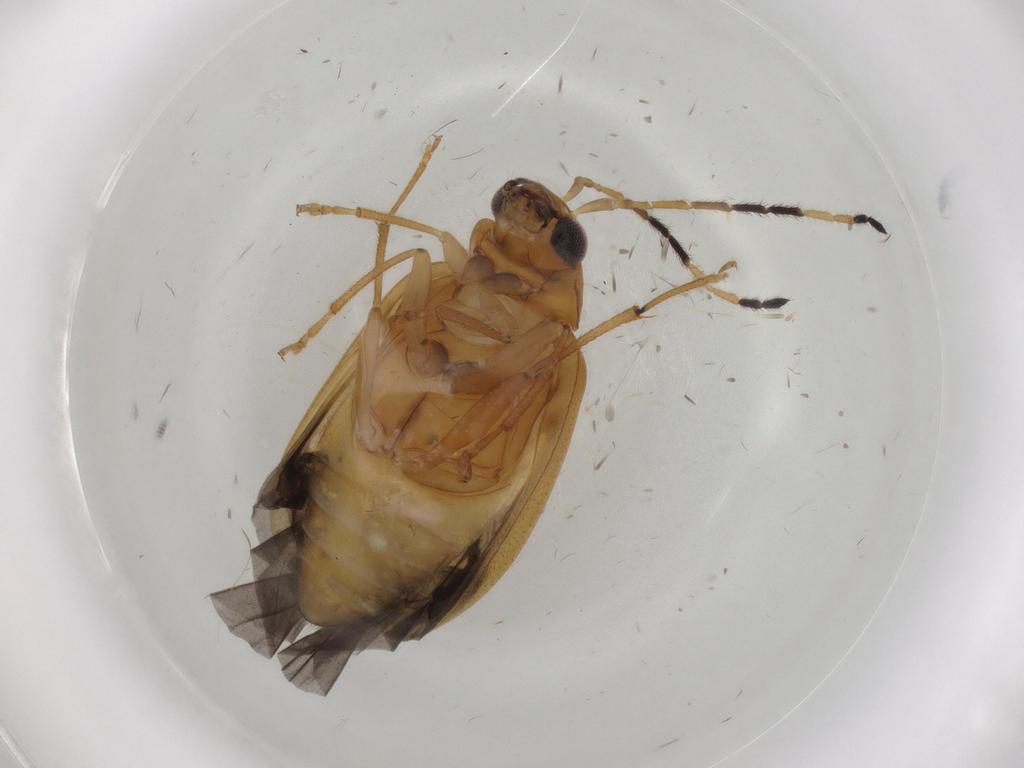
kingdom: Animalia
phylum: Arthropoda
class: Insecta
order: Coleoptera
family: Chrysomelidae
